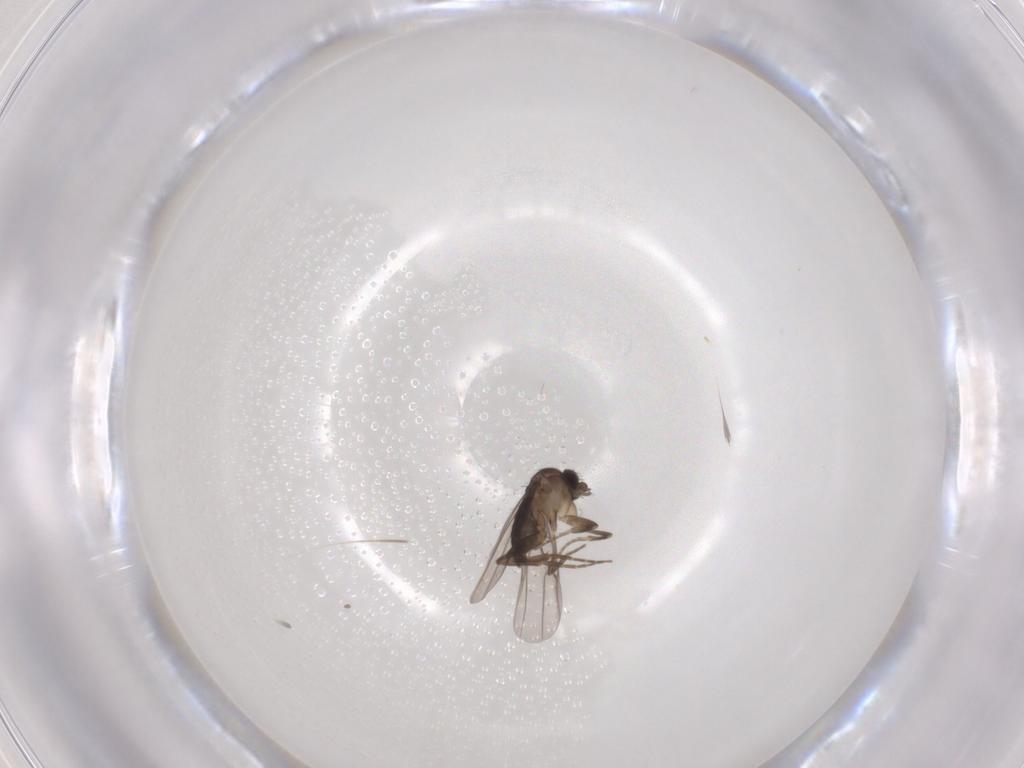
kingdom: Animalia
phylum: Arthropoda
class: Insecta
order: Diptera
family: Phoridae
